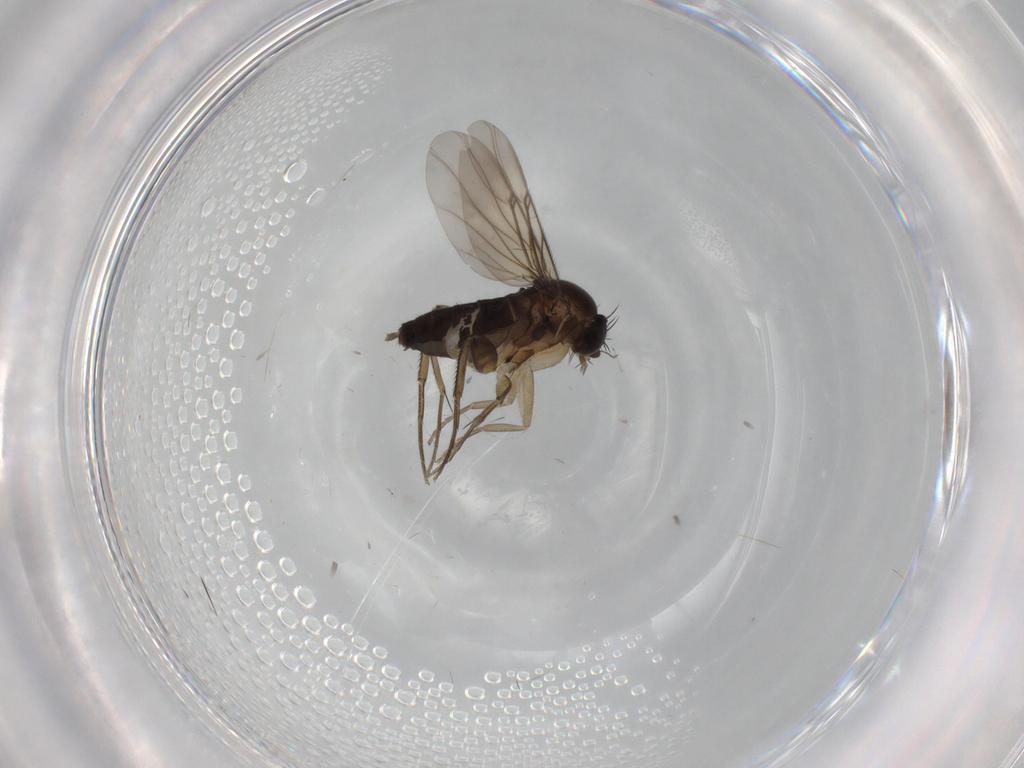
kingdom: Animalia
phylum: Arthropoda
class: Insecta
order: Diptera
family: Phoridae
